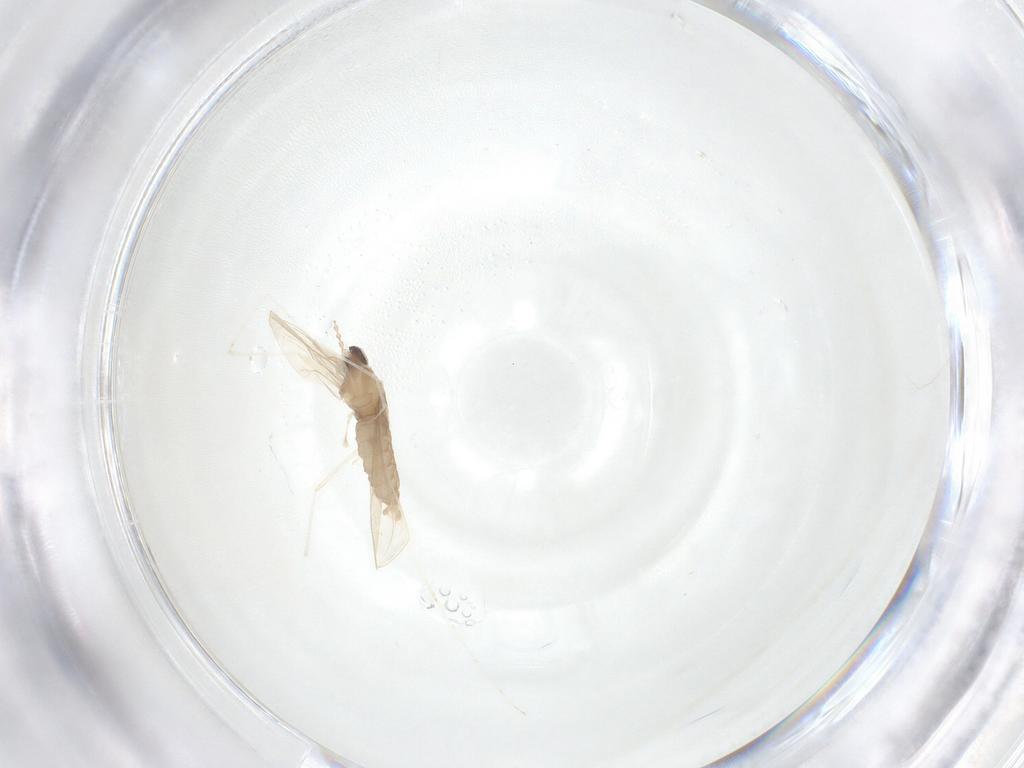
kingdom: Animalia
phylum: Arthropoda
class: Insecta
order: Diptera
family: Cecidomyiidae
